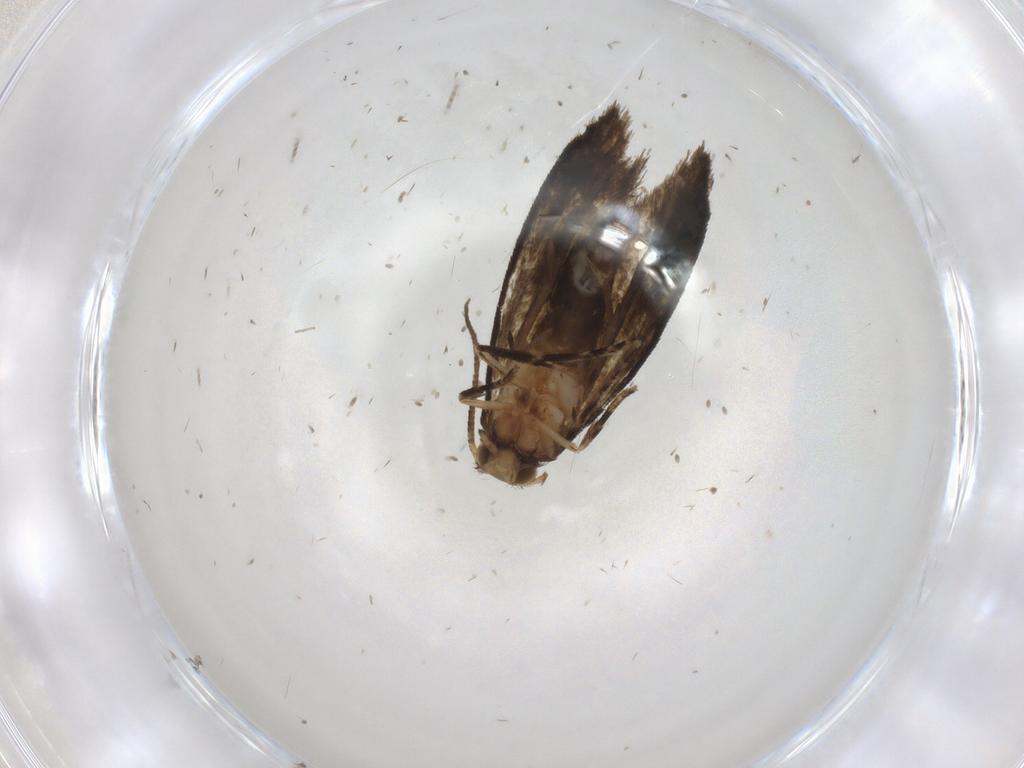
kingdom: Animalia
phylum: Arthropoda
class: Insecta
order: Lepidoptera
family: Crambidae
